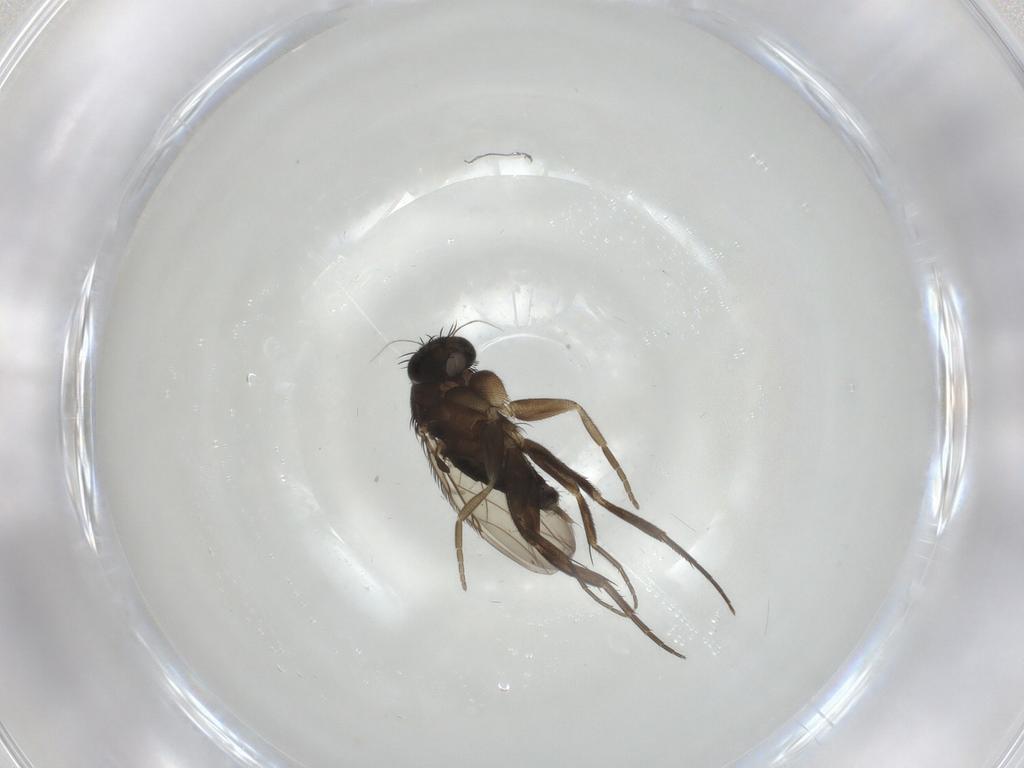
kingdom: Animalia
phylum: Arthropoda
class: Insecta
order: Diptera
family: Phoridae
